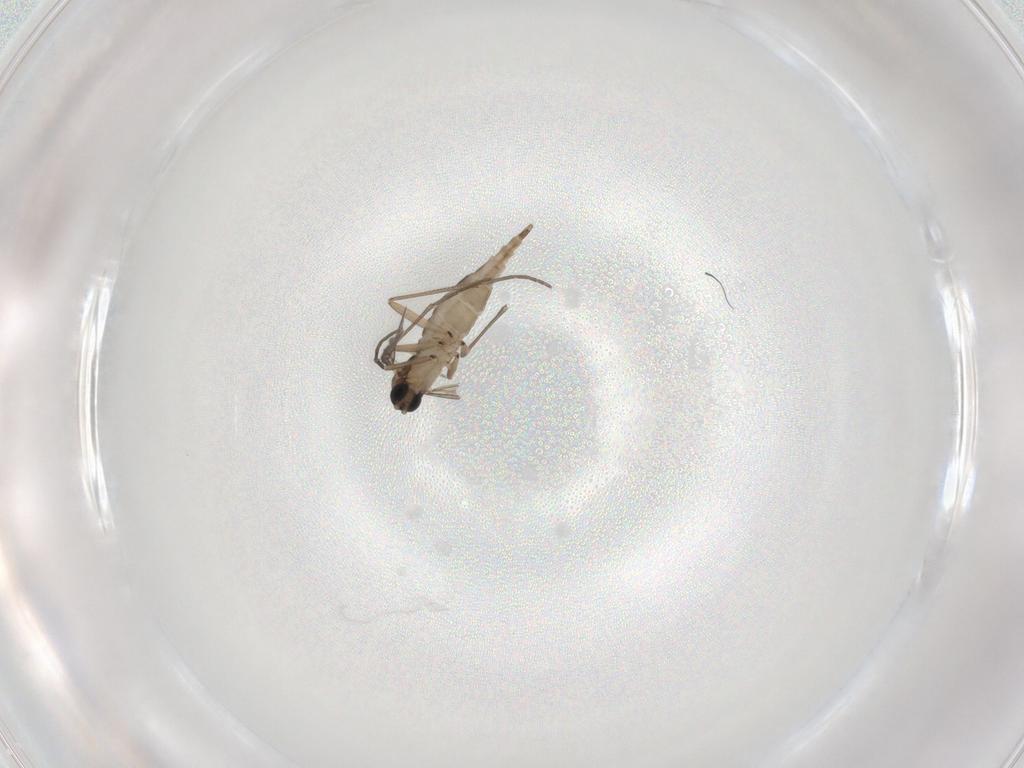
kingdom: Animalia
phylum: Arthropoda
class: Insecta
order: Diptera
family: Sciaridae
